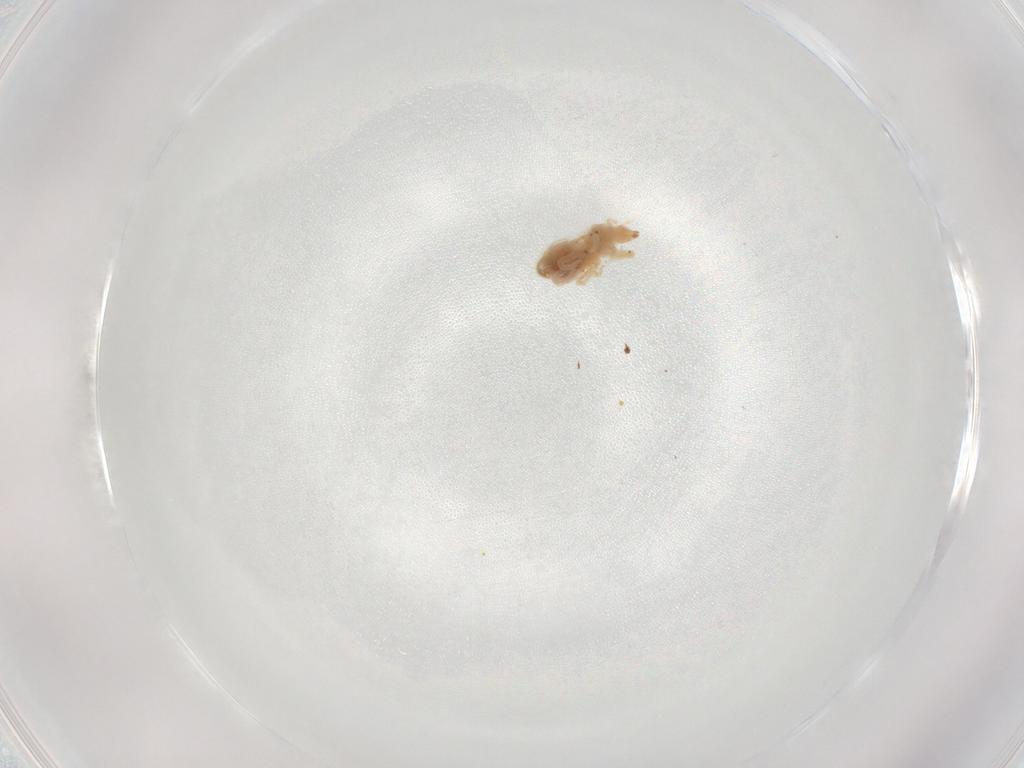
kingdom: Animalia
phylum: Arthropoda
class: Arachnida
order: Trombidiformes
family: Bdellidae
